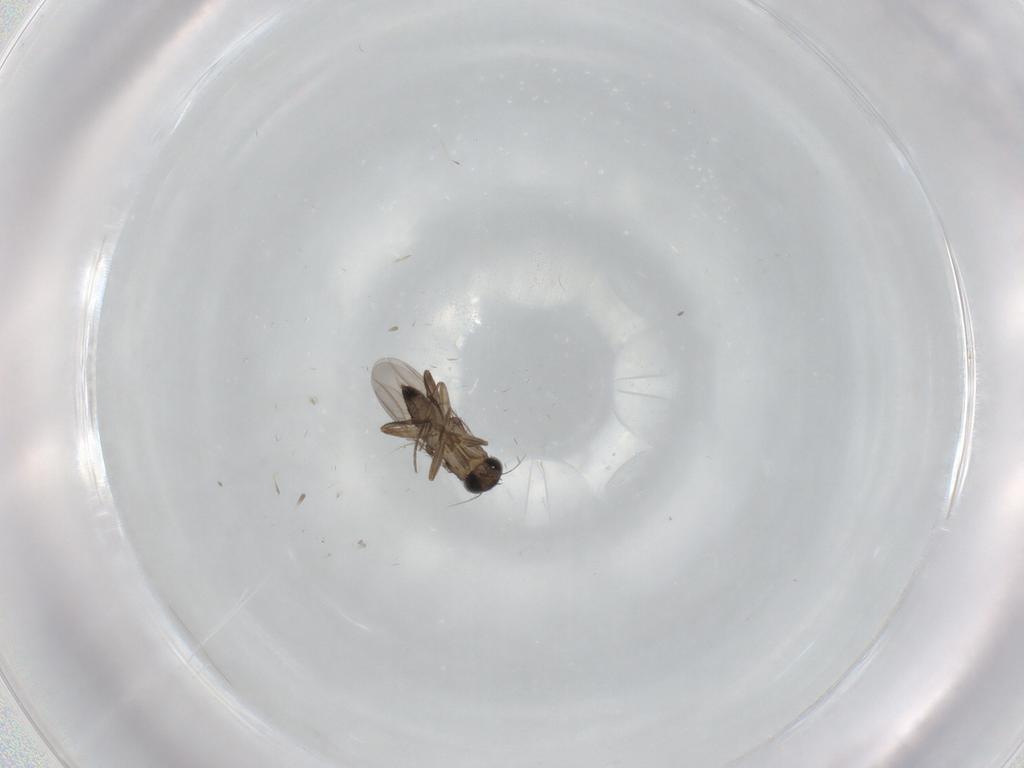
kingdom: Animalia
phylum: Arthropoda
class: Insecta
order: Diptera
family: Phoridae
